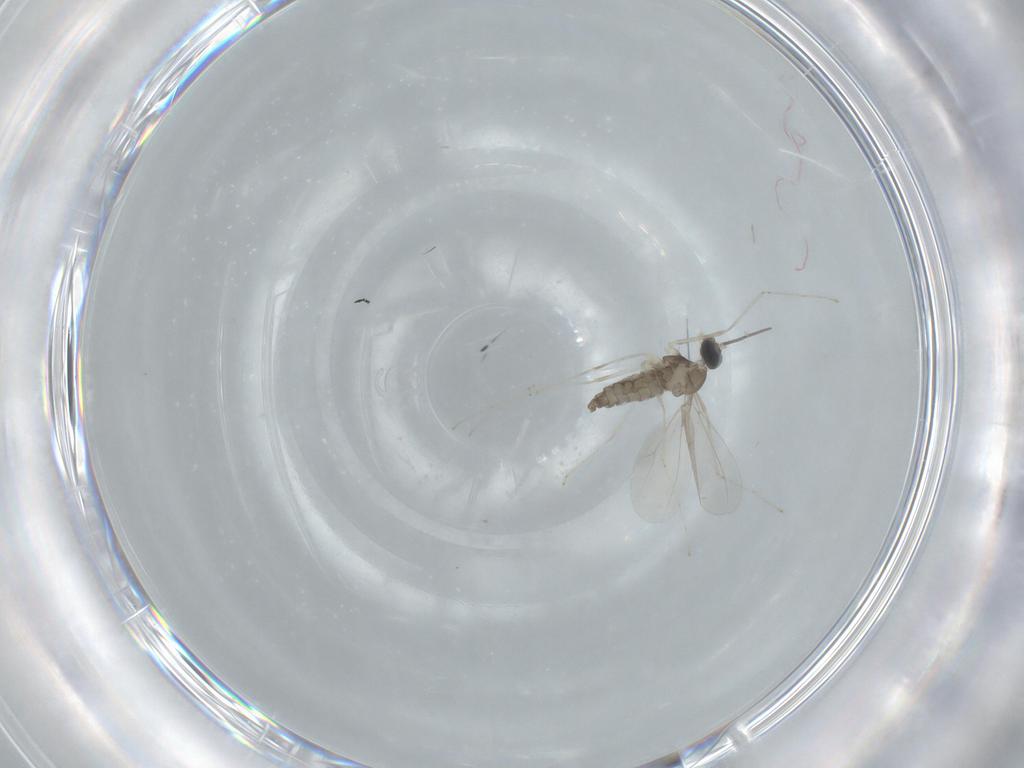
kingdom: Animalia
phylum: Arthropoda
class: Insecta
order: Diptera
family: Cecidomyiidae
